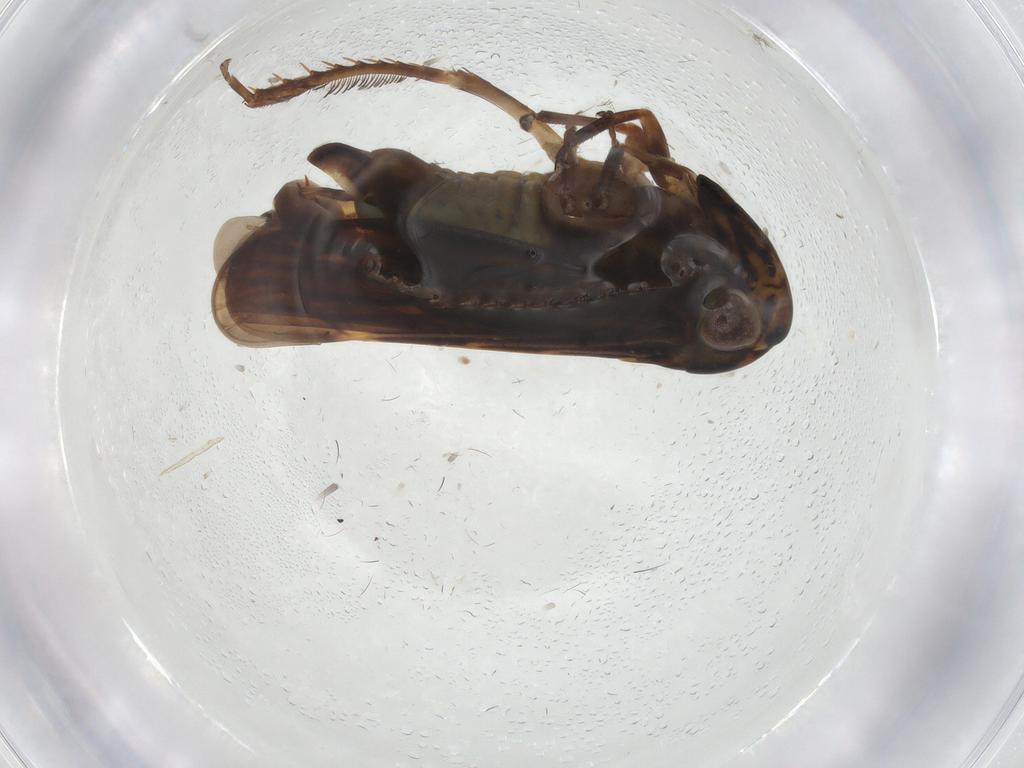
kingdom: Animalia
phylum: Arthropoda
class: Insecta
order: Hemiptera
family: Cicadellidae
